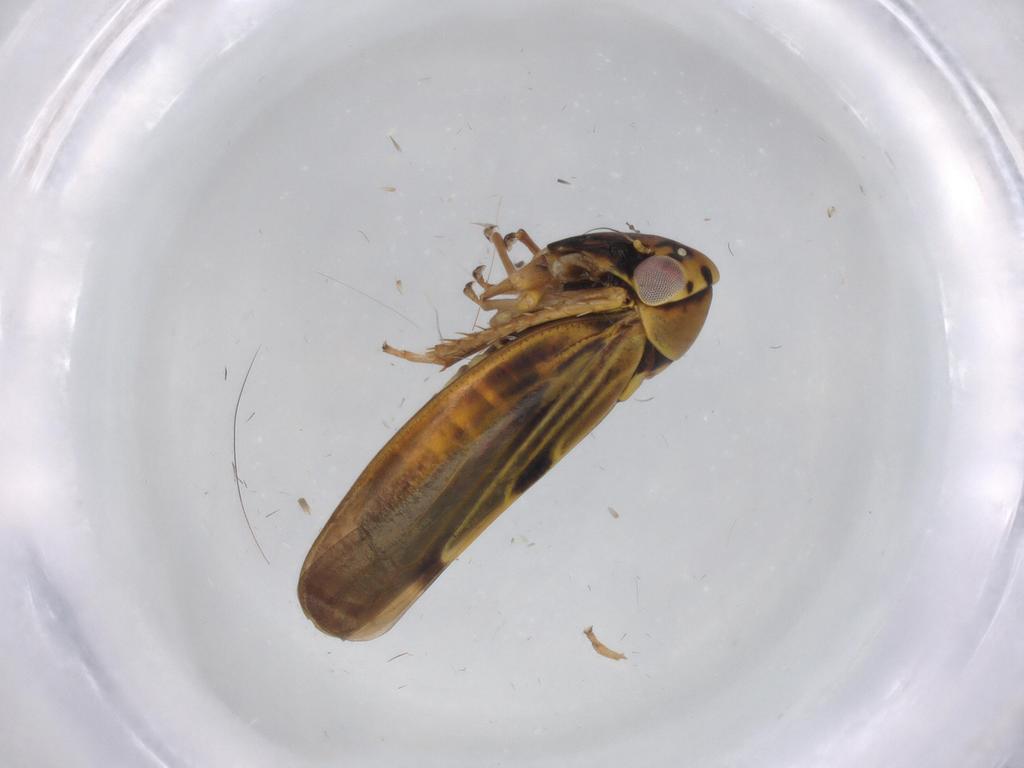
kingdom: Animalia
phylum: Arthropoda
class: Insecta
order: Hemiptera
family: Cicadellidae
